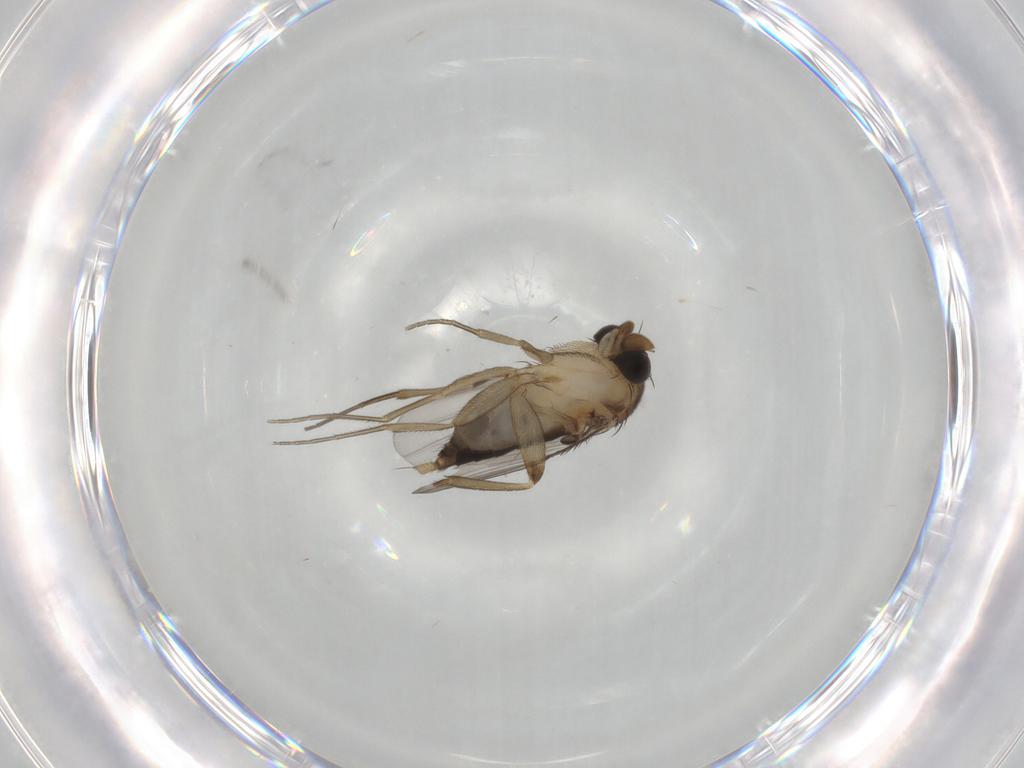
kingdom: Animalia
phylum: Arthropoda
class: Insecta
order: Diptera
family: Phoridae
